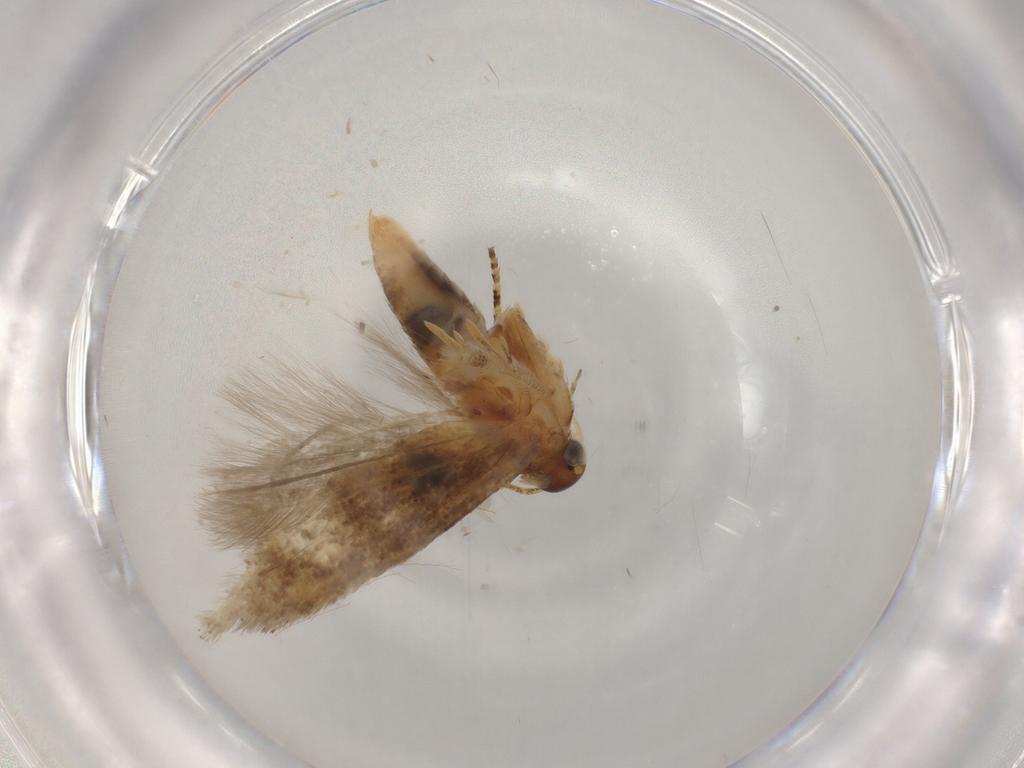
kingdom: Animalia
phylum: Arthropoda
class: Insecta
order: Lepidoptera
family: Gelechiidae
